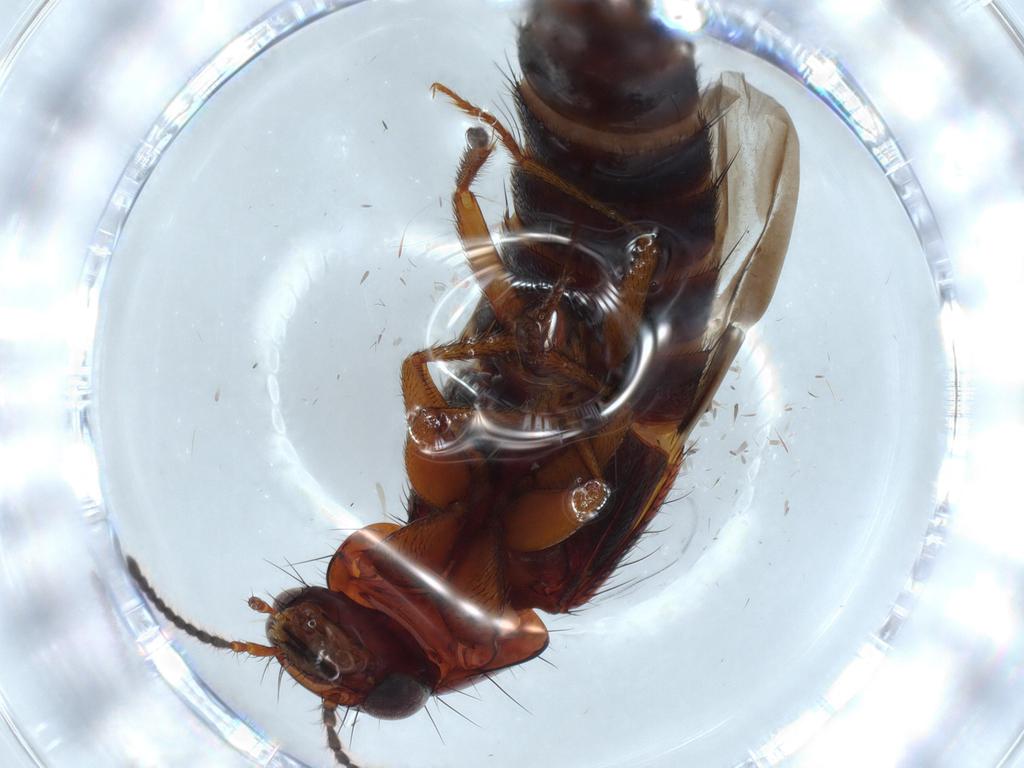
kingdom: Animalia
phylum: Arthropoda
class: Insecta
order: Coleoptera
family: Staphylinidae
